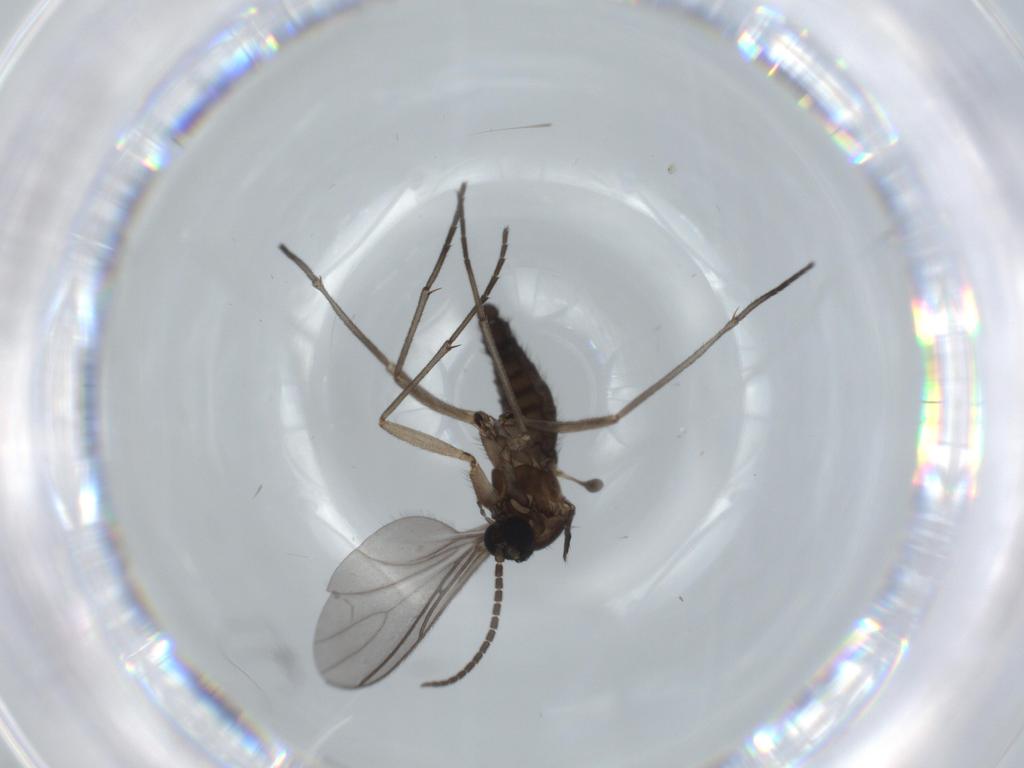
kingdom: Animalia
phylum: Arthropoda
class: Insecta
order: Diptera
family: Sciaridae
